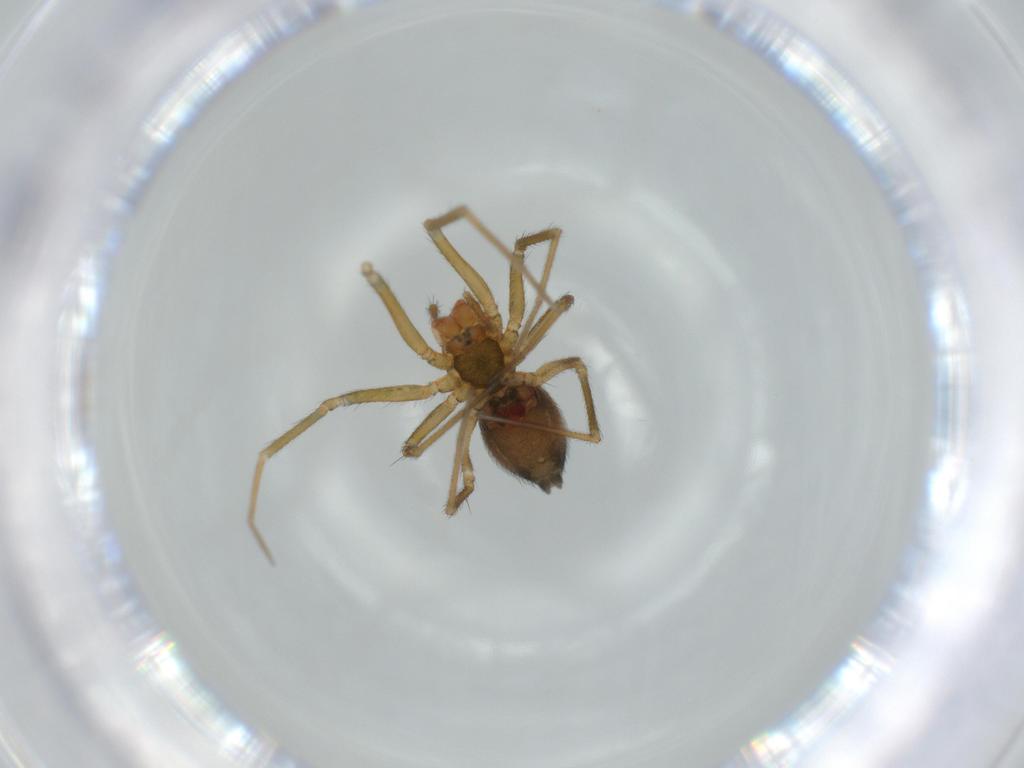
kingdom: Animalia
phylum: Arthropoda
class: Arachnida
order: Araneae
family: Linyphiidae
